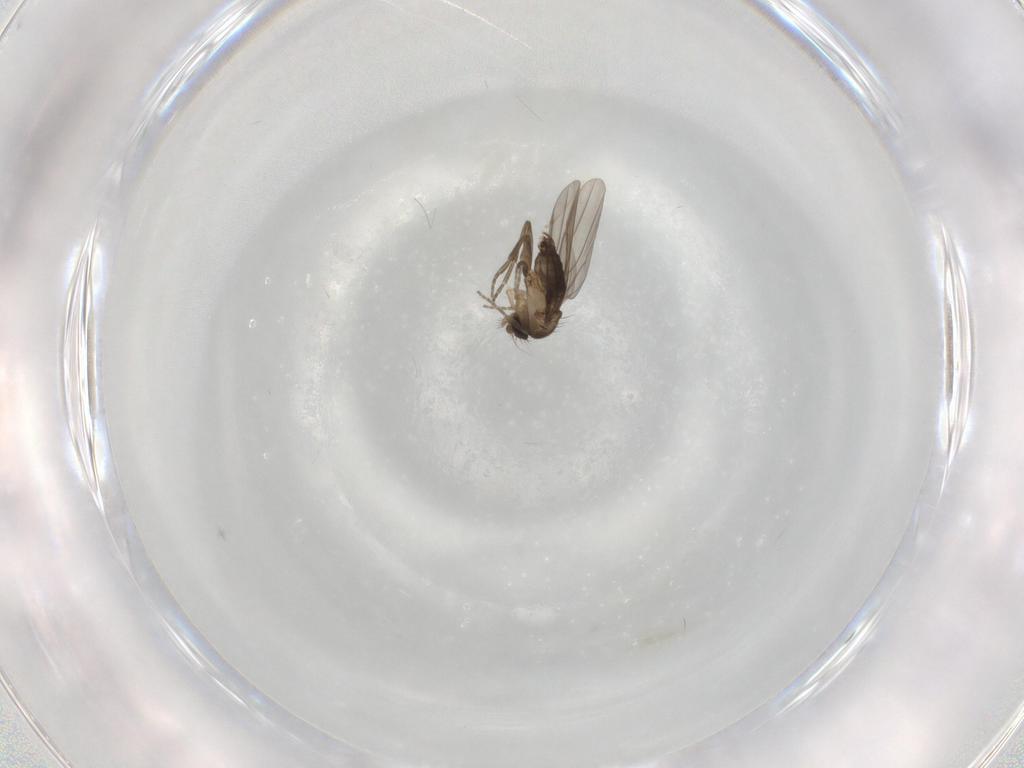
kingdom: Animalia
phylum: Arthropoda
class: Insecta
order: Diptera
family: Phoridae
